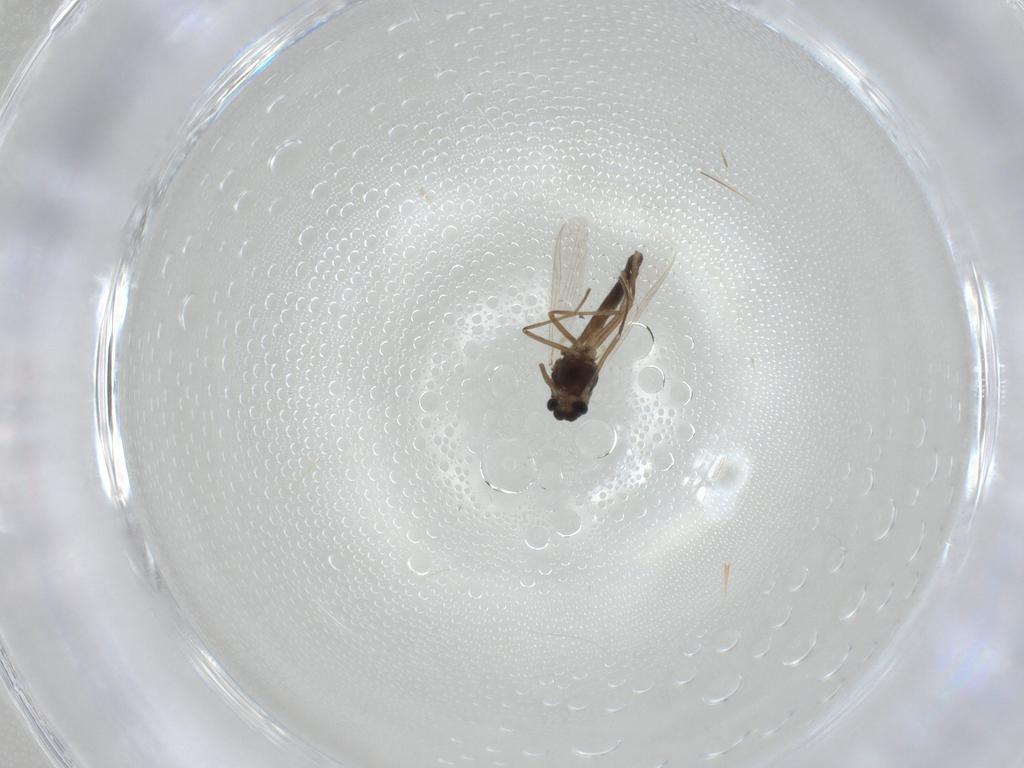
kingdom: Animalia
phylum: Arthropoda
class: Insecta
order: Diptera
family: Chironomidae
